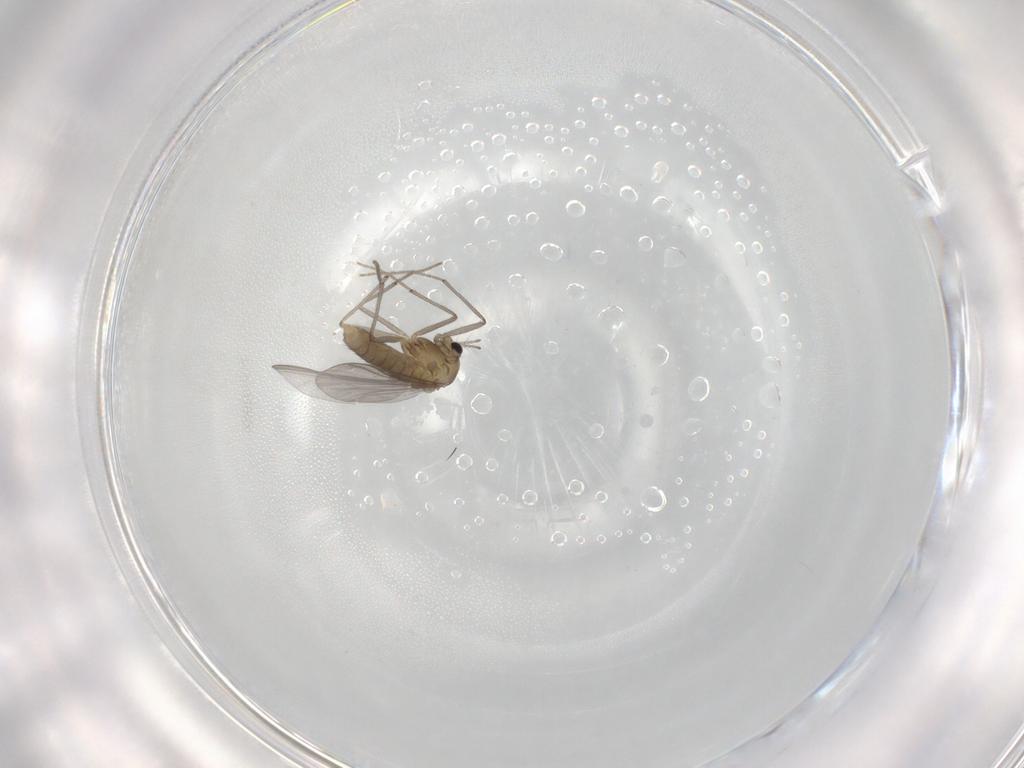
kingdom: Animalia
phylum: Arthropoda
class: Insecta
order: Diptera
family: Chironomidae
